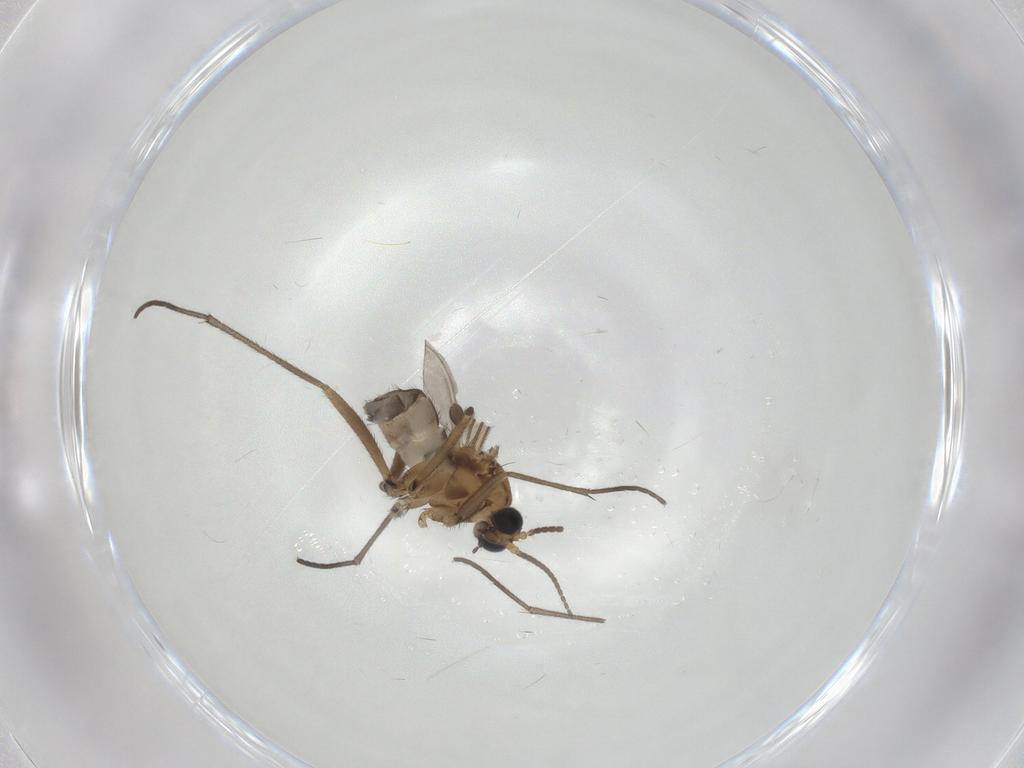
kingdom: Animalia
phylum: Arthropoda
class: Insecta
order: Diptera
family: Sciaridae
